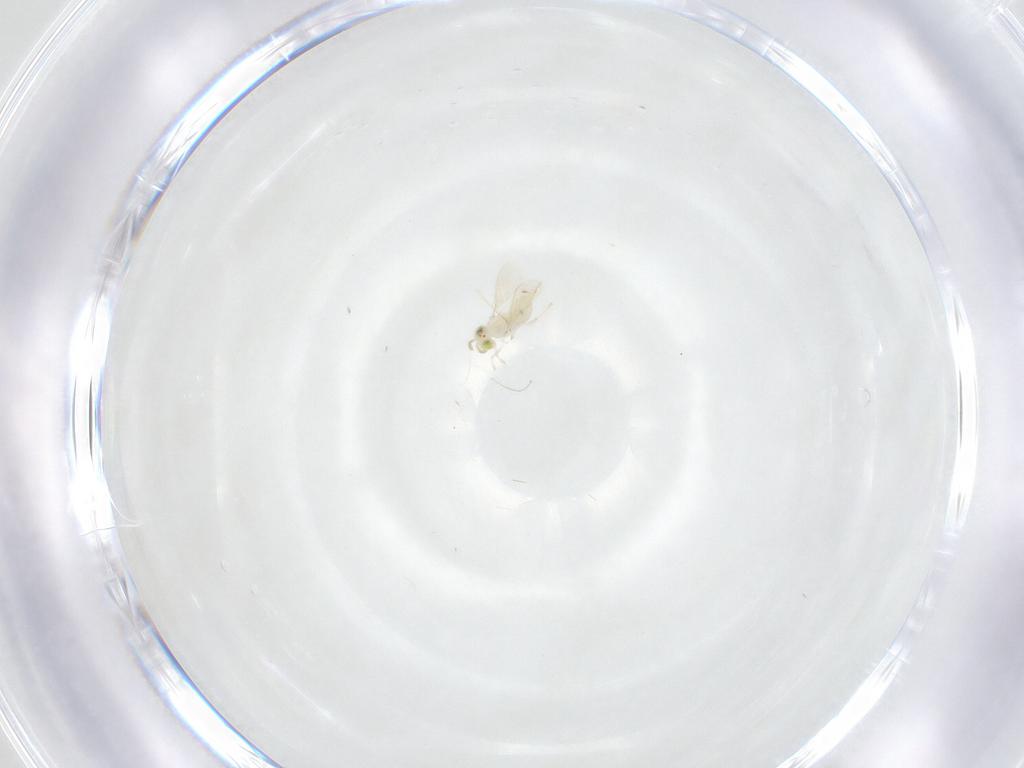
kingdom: Animalia
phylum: Arthropoda
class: Insecta
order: Hymenoptera
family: Aphelinidae
